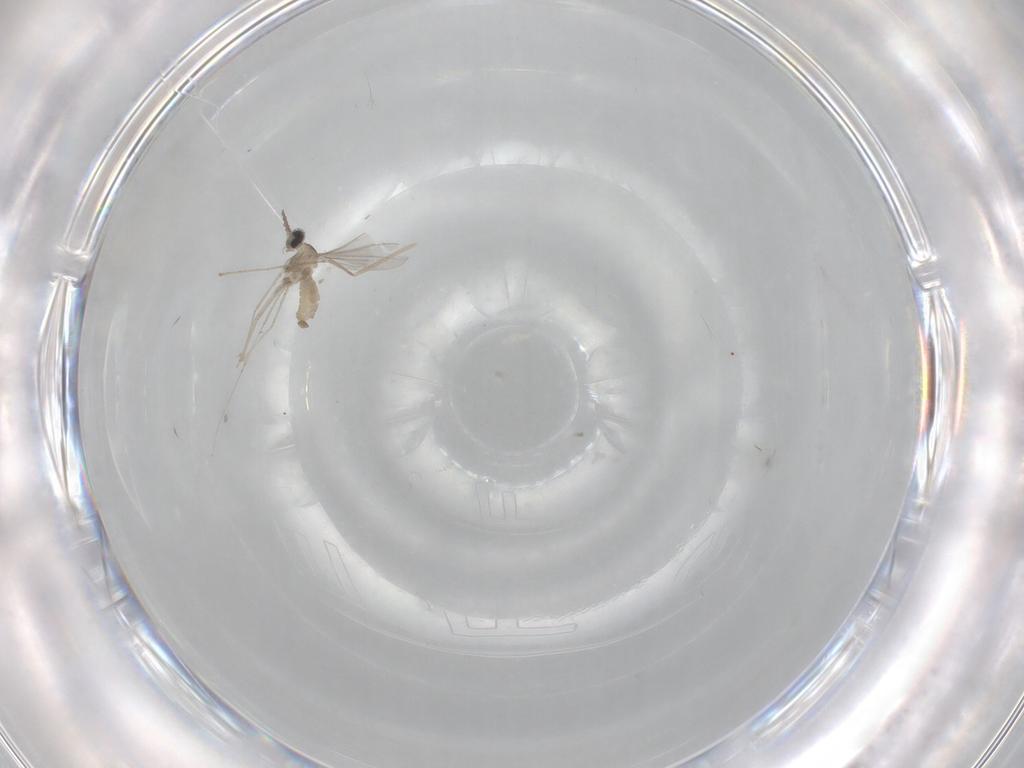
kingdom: Animalia
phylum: Arthropoda
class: Insecta
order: Diptera
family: Cecidomyiidae
